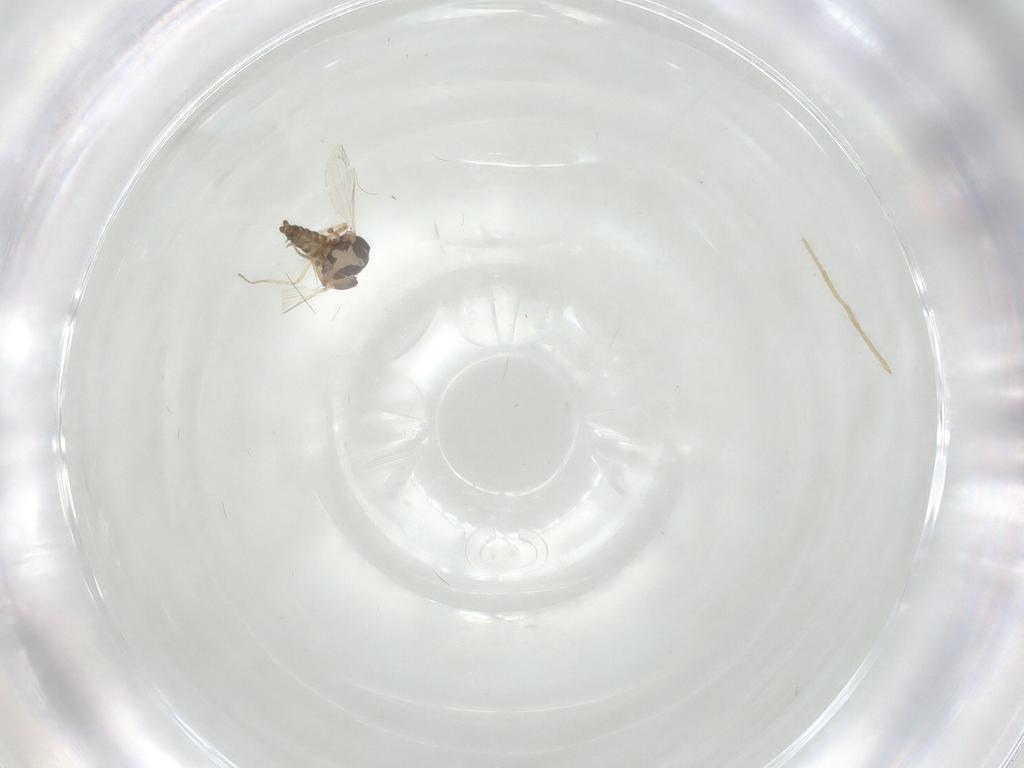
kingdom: Animalia
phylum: Arthropoda
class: Insecta
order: Diptera
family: Ceratopogonidae
